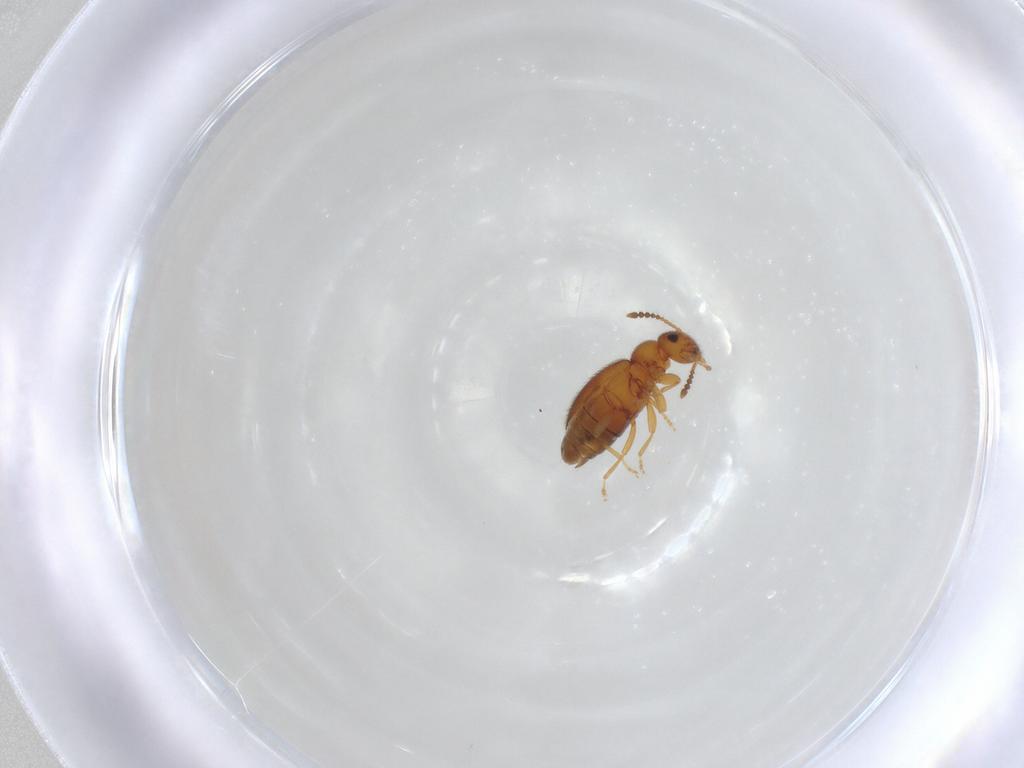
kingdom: Animalia
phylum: Arthropoda
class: Insecta
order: Coleoptera
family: Anthicidae
